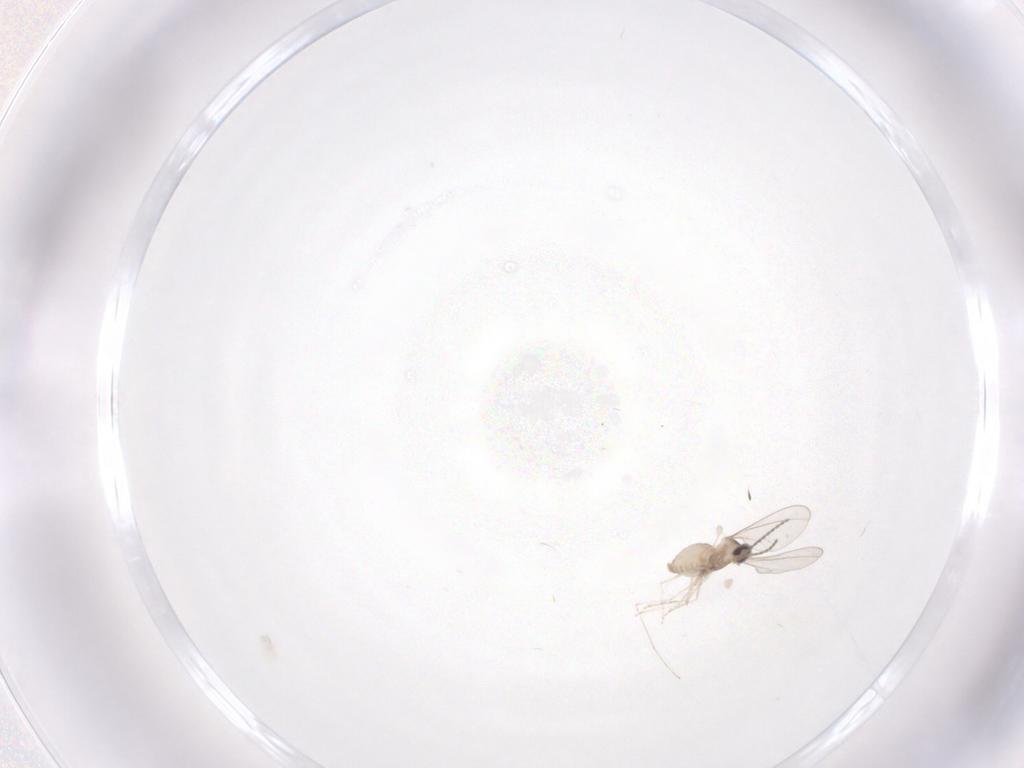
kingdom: Animalia
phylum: Arthropoda
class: Insecta
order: Diptera
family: Cecidomyiidae
